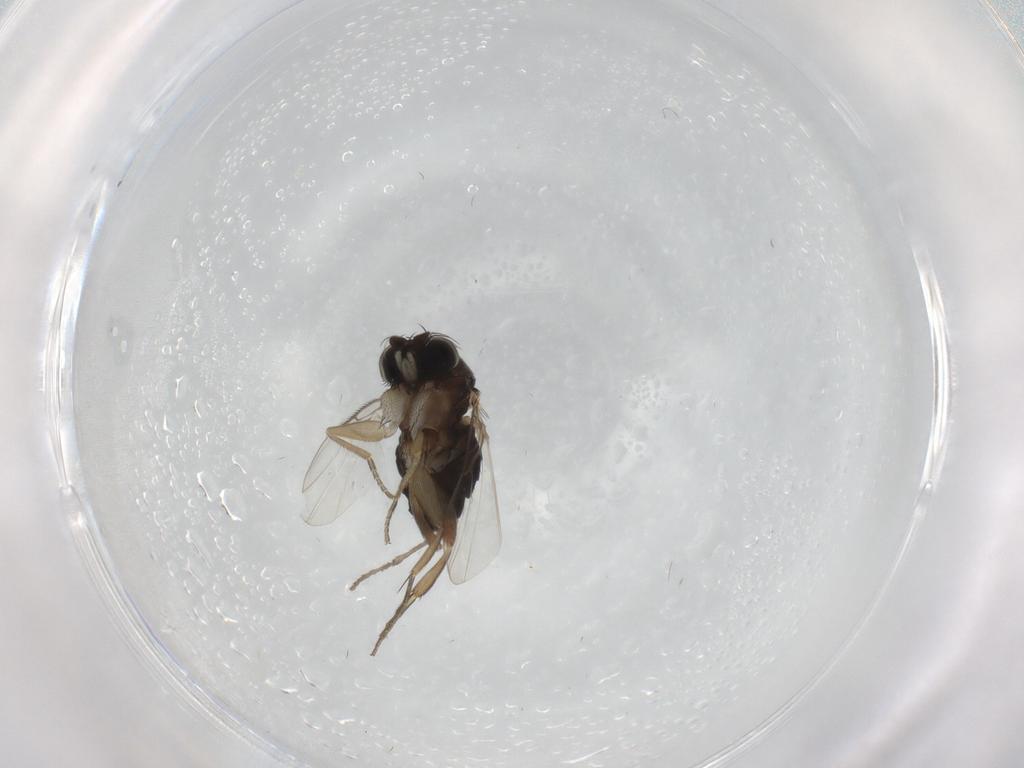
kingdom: Animalia
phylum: Arthropoda
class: Insecta
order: Diptera
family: Psychodidae
